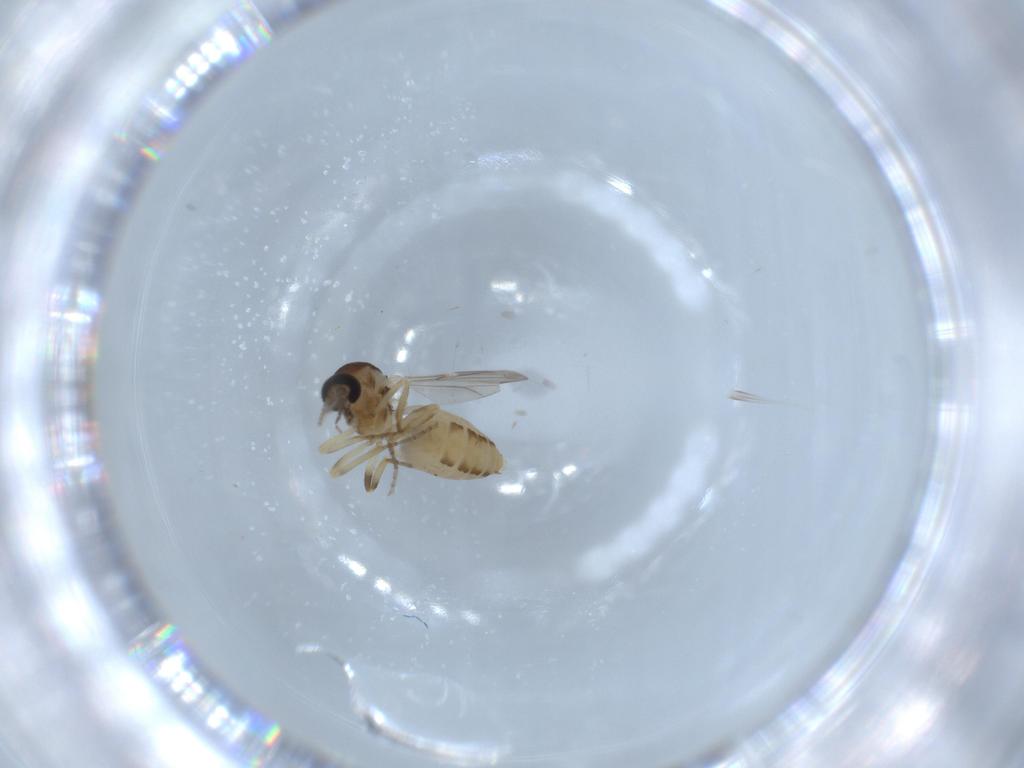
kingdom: Animalia
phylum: Arthropoda
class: Insecta
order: Diptera
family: Ceratopogonidae
